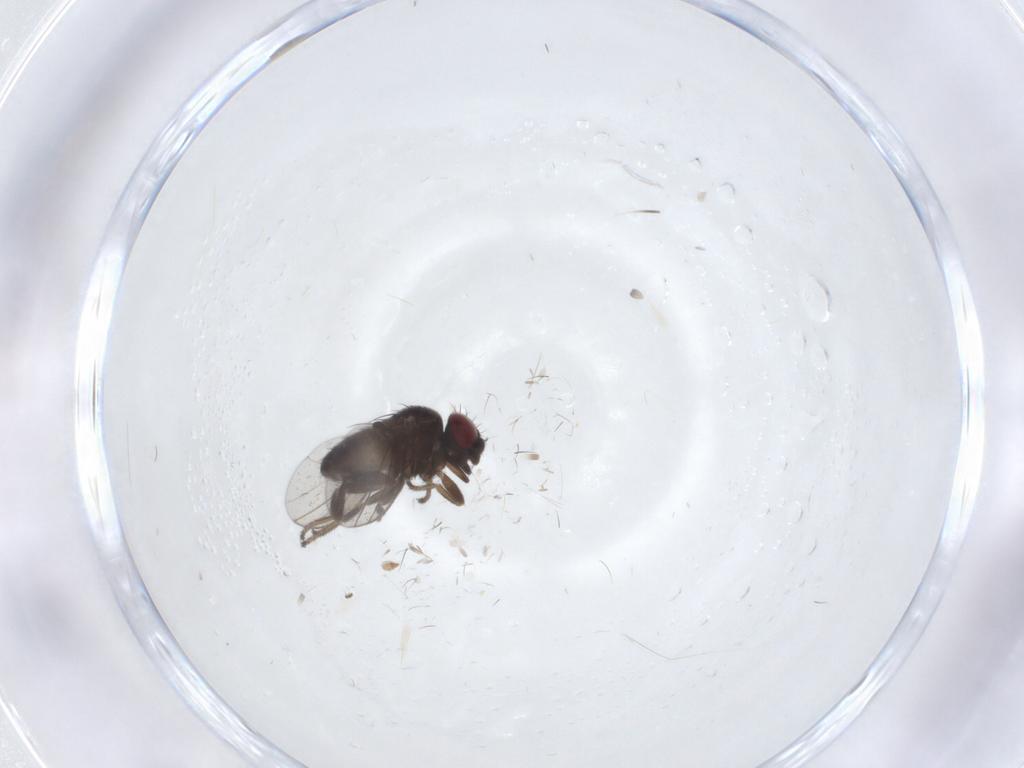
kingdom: Animalia
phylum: Arthropoda
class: Insecta
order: Diptera
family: Milichiidae
